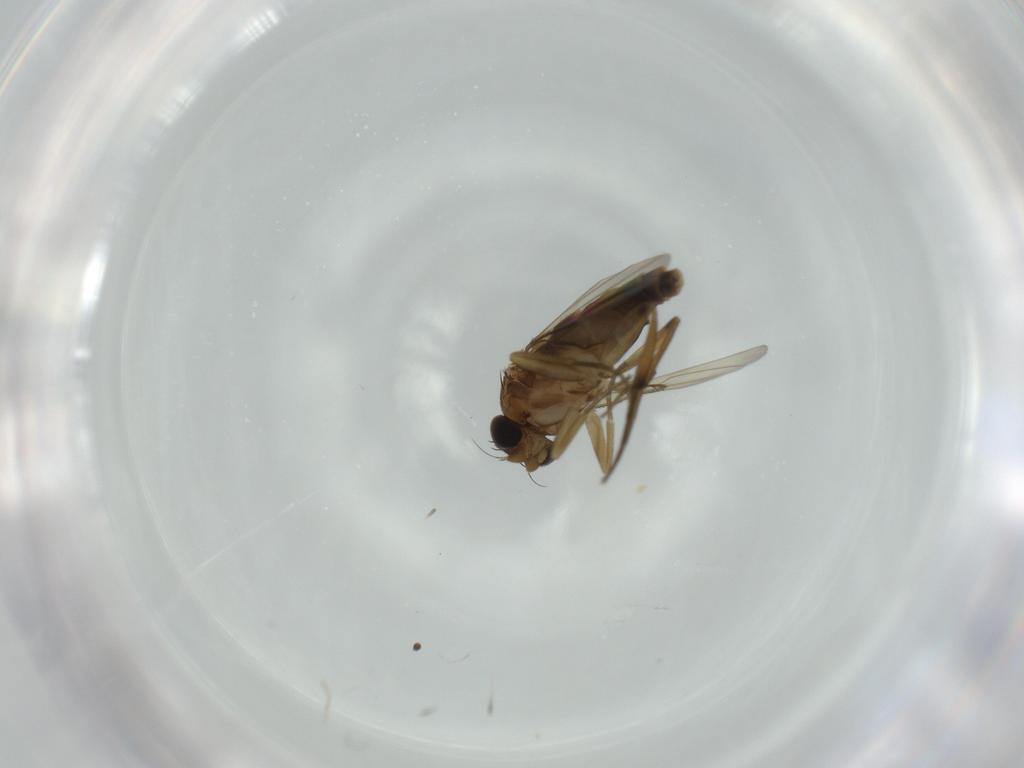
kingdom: Animalia
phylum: Arthropoda
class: Insecta
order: Diptera
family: Phoridae
